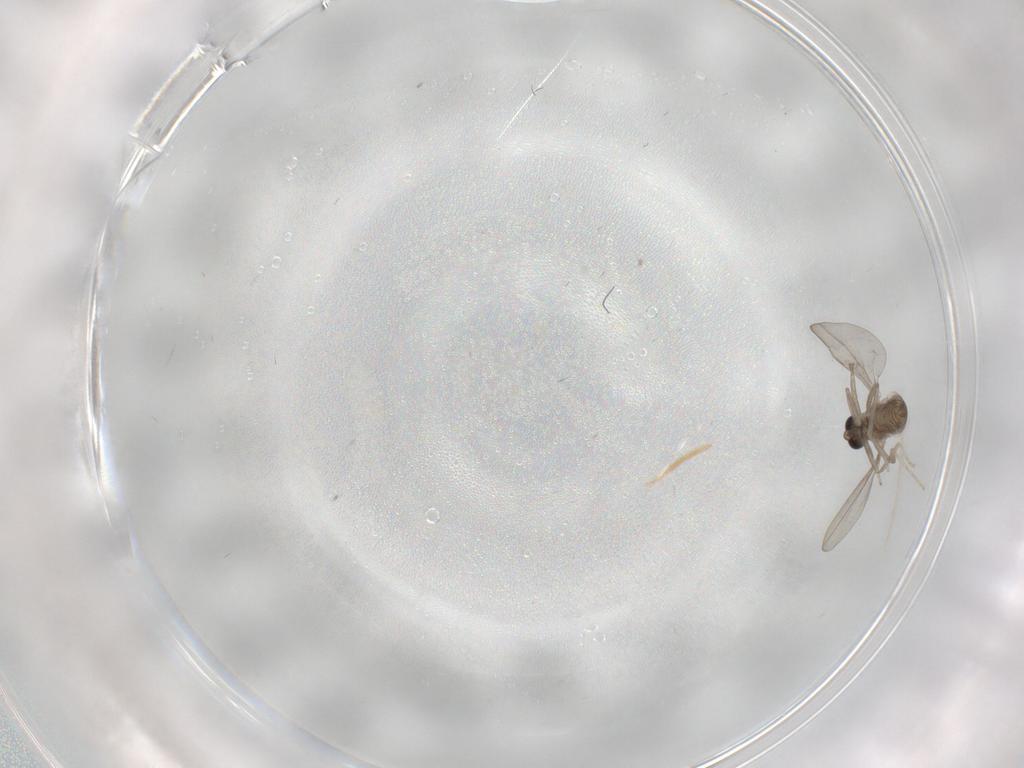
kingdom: Animalia
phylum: Arthropoda
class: Insecta
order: Diptera
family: Cecidomyiidae
